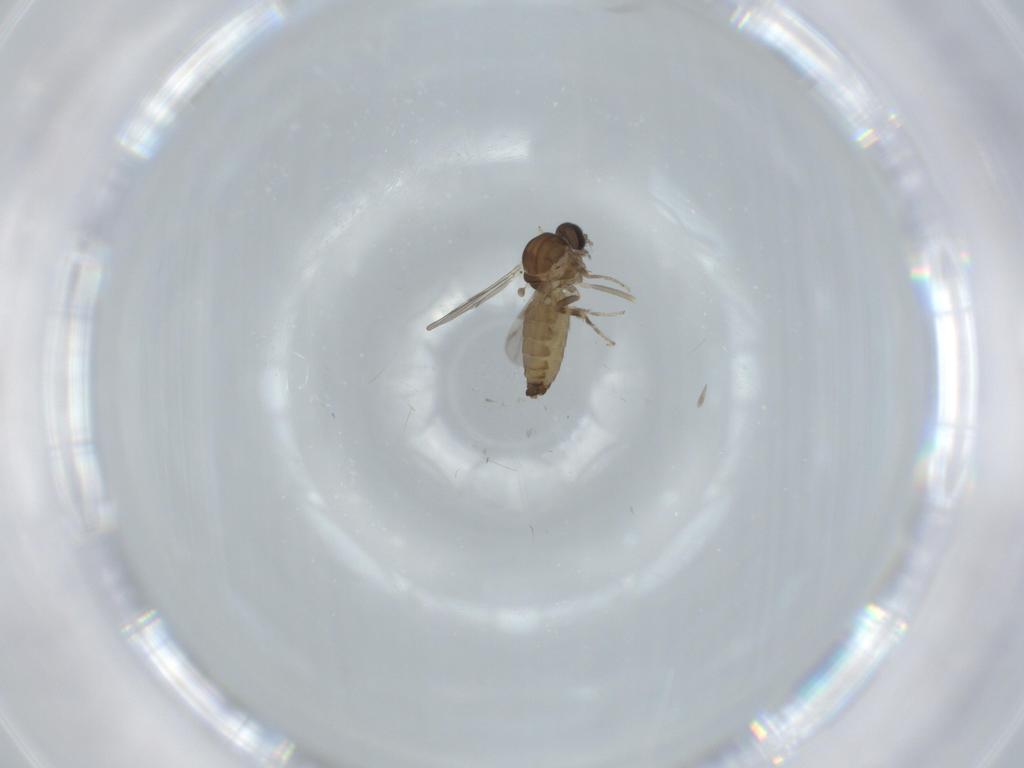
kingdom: Animalia
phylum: Arthropoda
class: Insecta
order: Diptera
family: Ceratopogonidae
